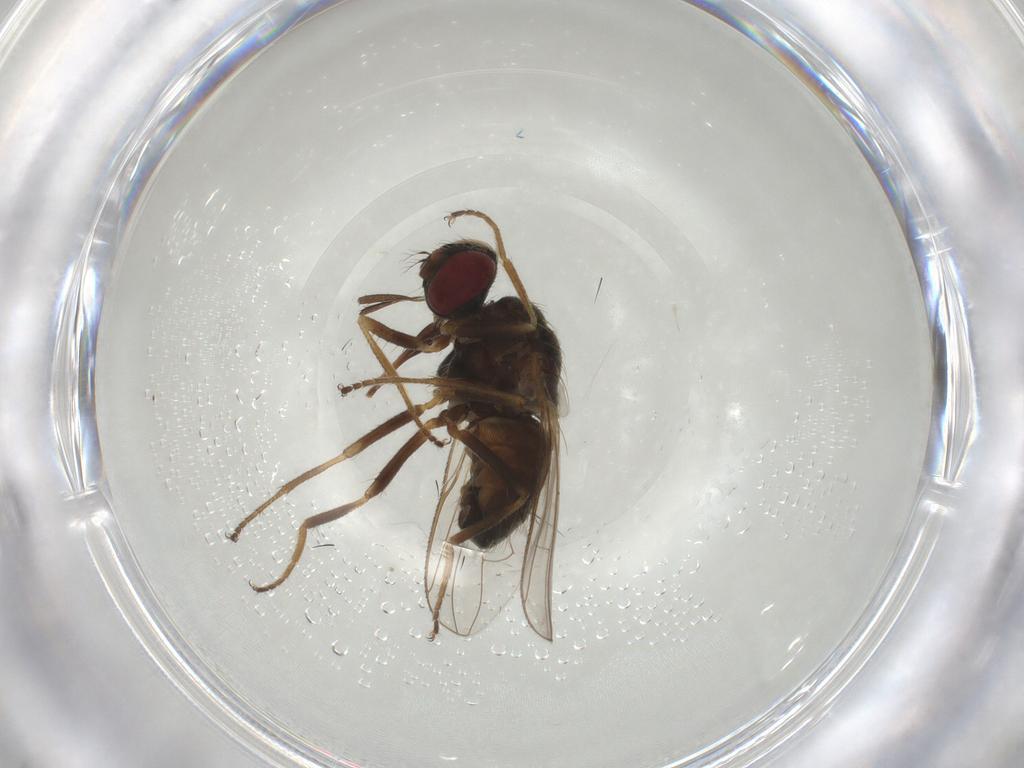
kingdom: Animalia
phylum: Arthropoda
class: Insecta
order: Diptera
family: Muscidae
